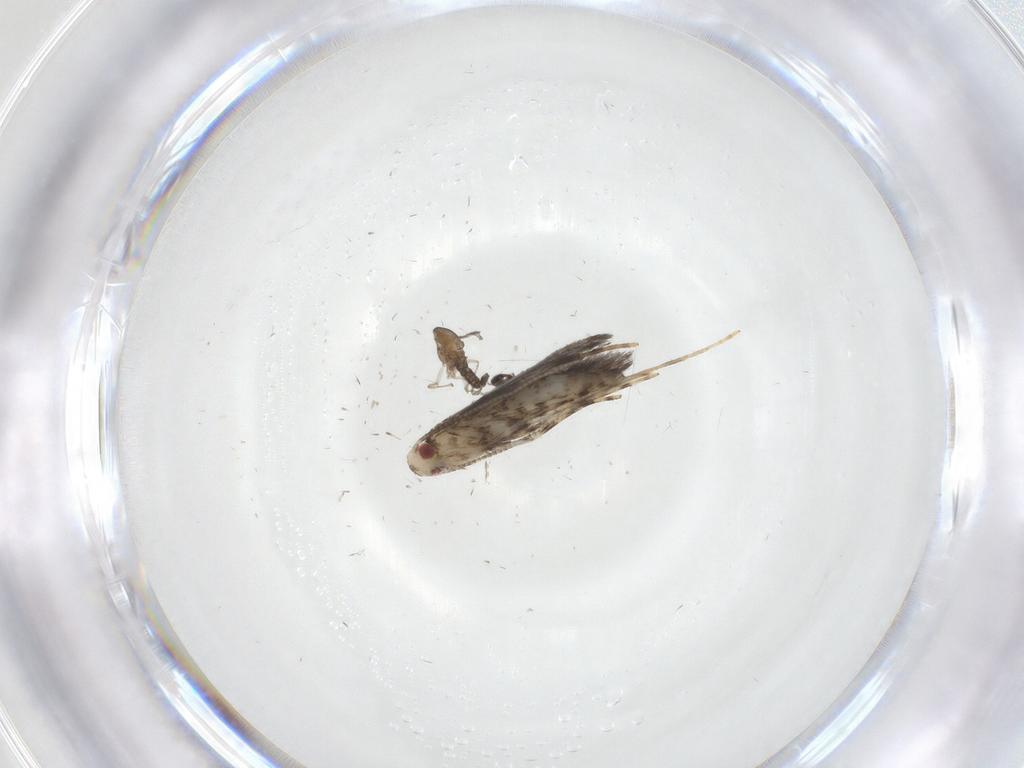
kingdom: Animalia
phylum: Arthropoda
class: Insecta
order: Lepidoptera
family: Gracillariidae
